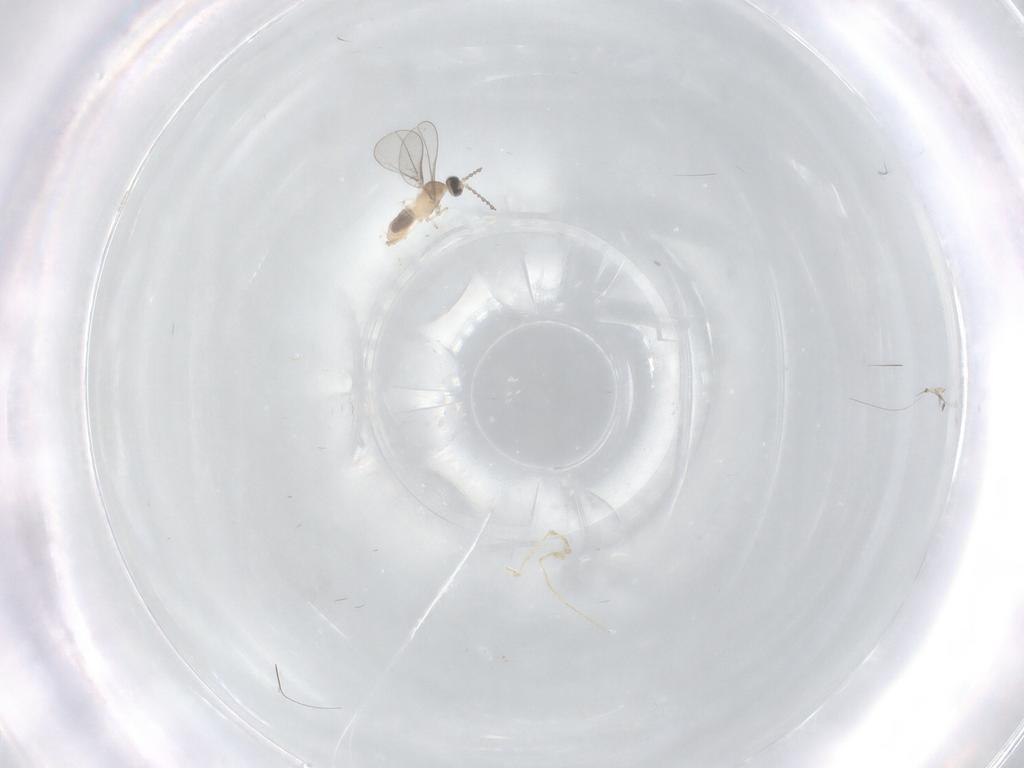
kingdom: Animalia
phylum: Arthropoda
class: Insecta
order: Diptera
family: Cecidomyiidae
